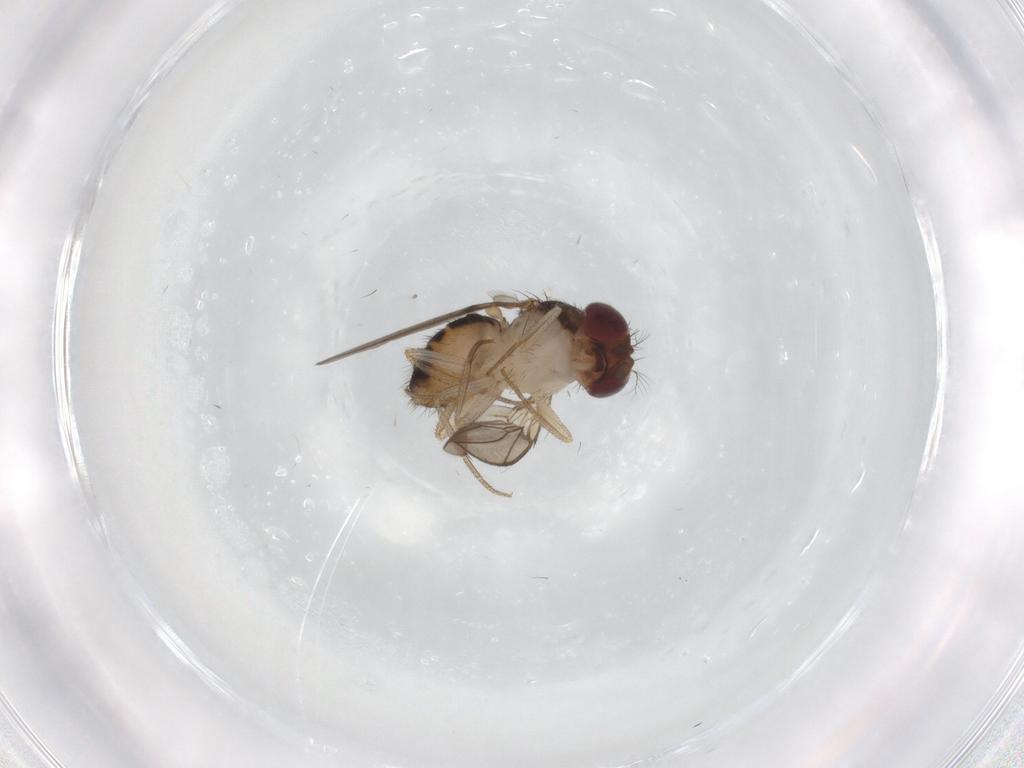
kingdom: Animalia
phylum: Arthropoda
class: Insecta
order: Diptera
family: Drosophilidae
